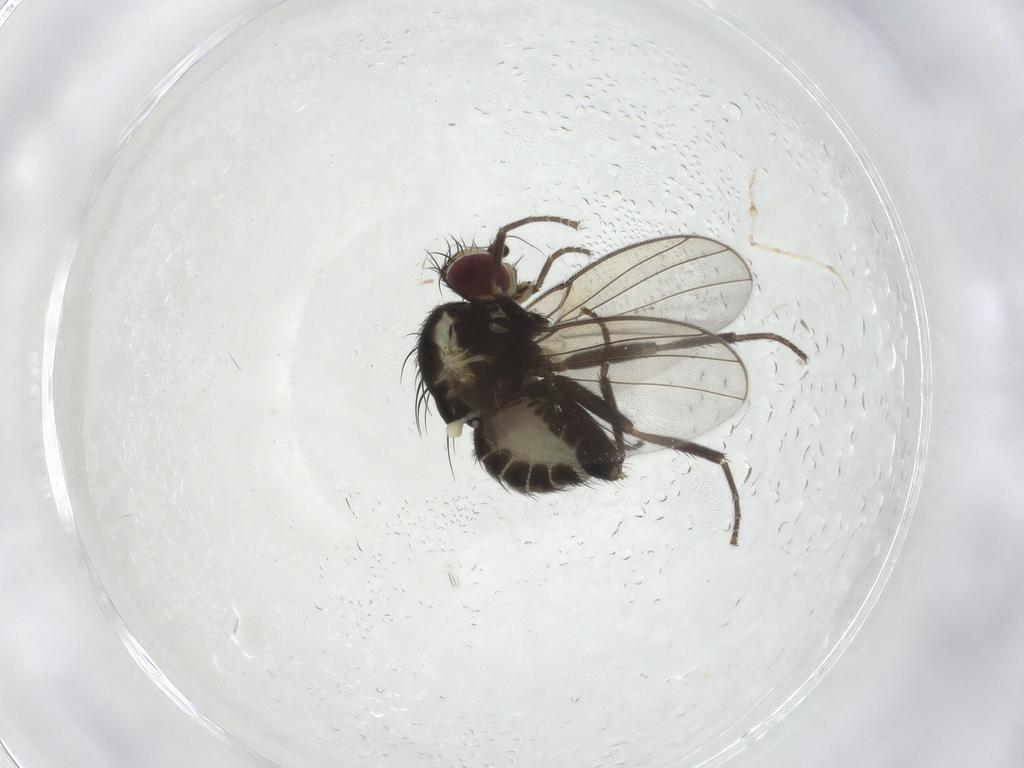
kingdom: Animalia
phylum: Arthropoda
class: Insecta
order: Diptera
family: Agromyzidae
